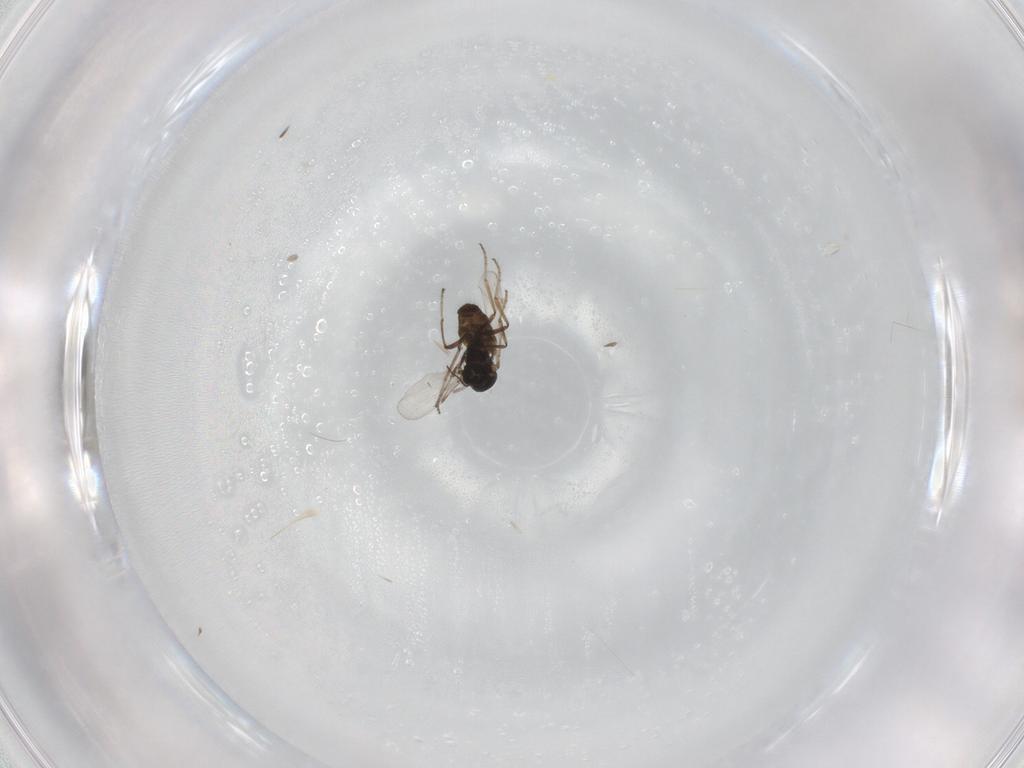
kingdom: Animalia
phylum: Arthropoda
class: Insecta
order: Diptera
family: Ceratopogonidae
